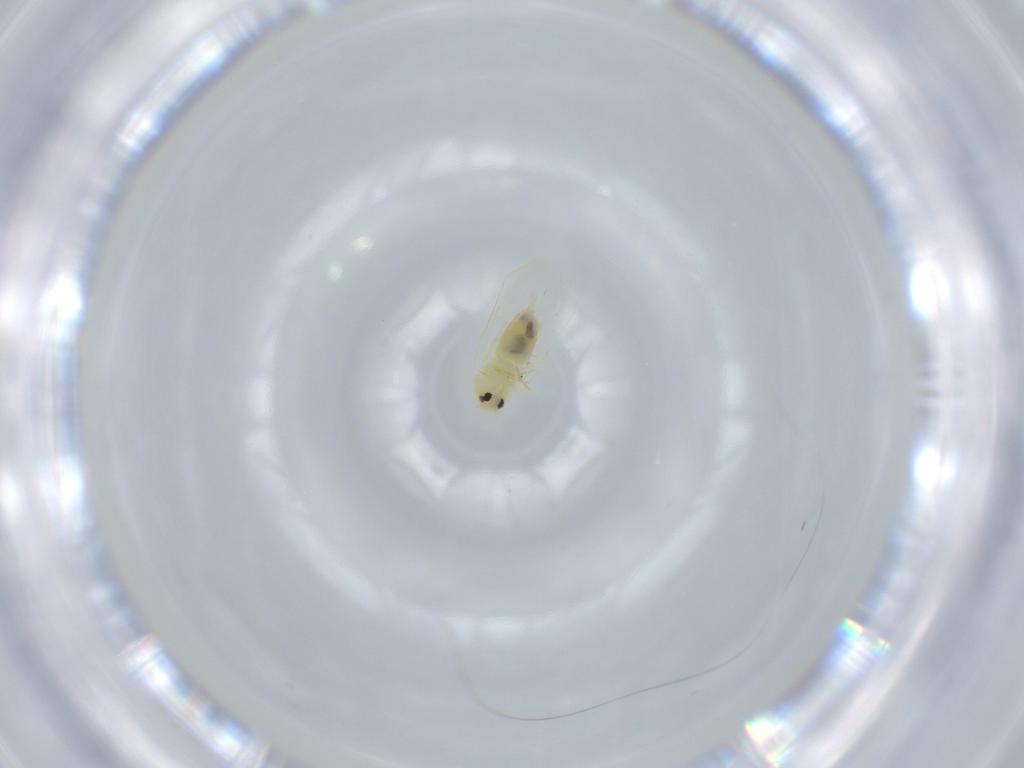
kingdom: Animalia
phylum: Arthropoda
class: Insecta
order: Hemiptera
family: Aleyrodidae
